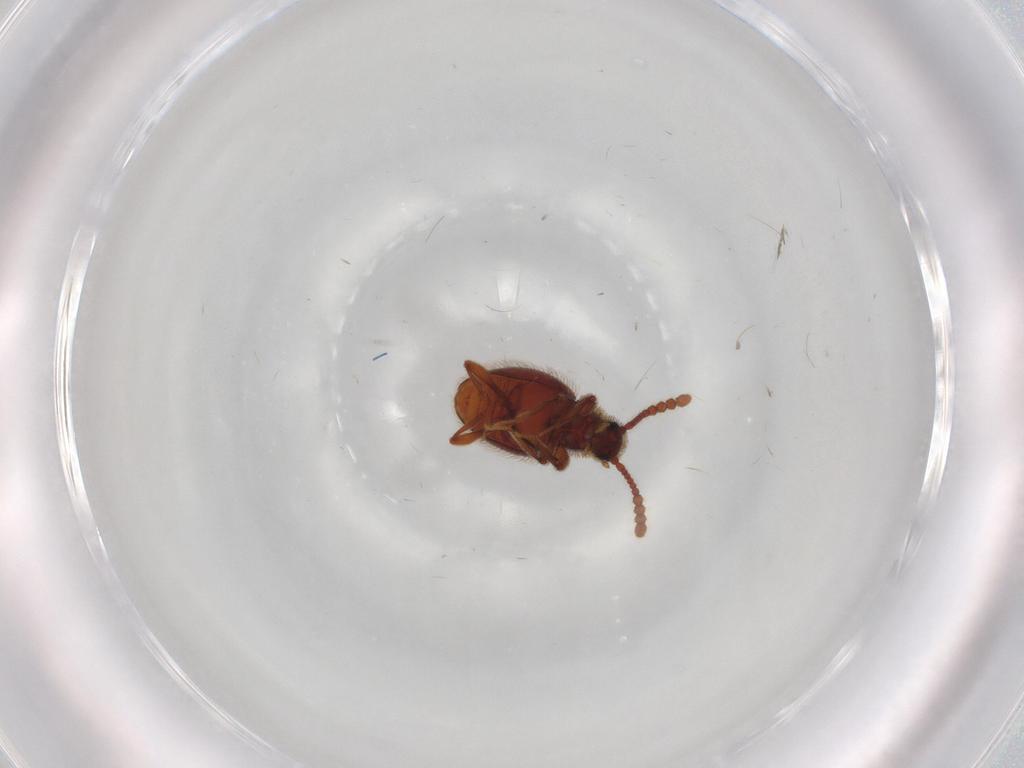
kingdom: Animalia
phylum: Arthropoda
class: Insecta
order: Coleoptera
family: Staphylinidae
